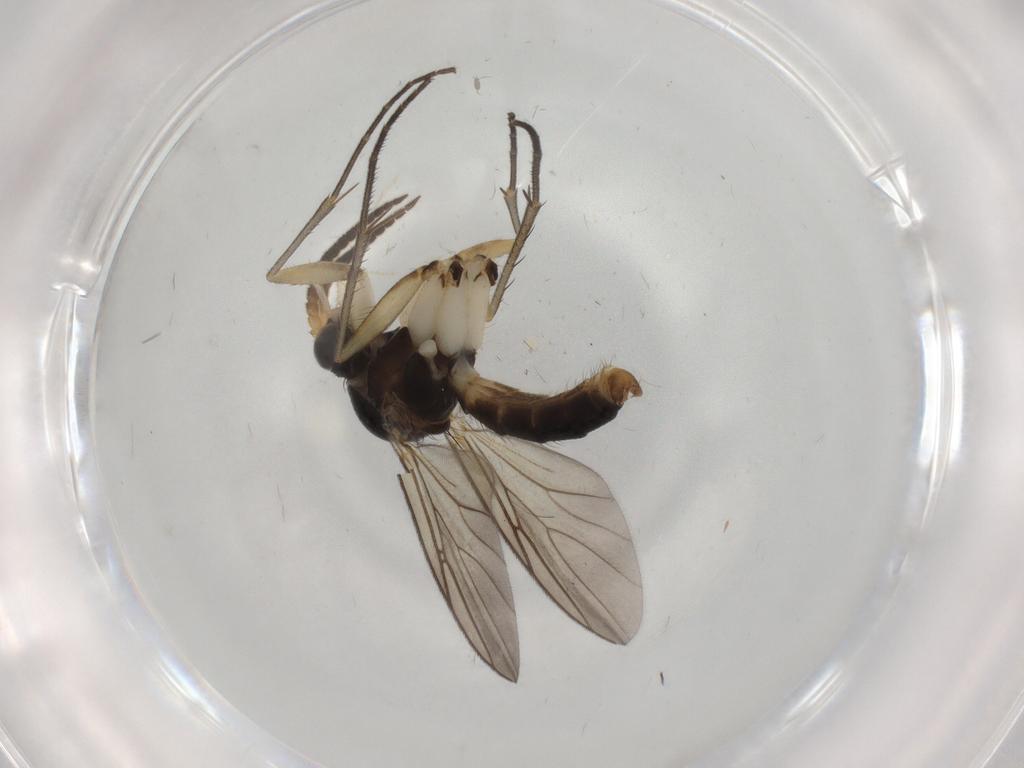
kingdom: Animalia
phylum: Arthropoda
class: Insecta
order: Diptera
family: Mycetophilidae
